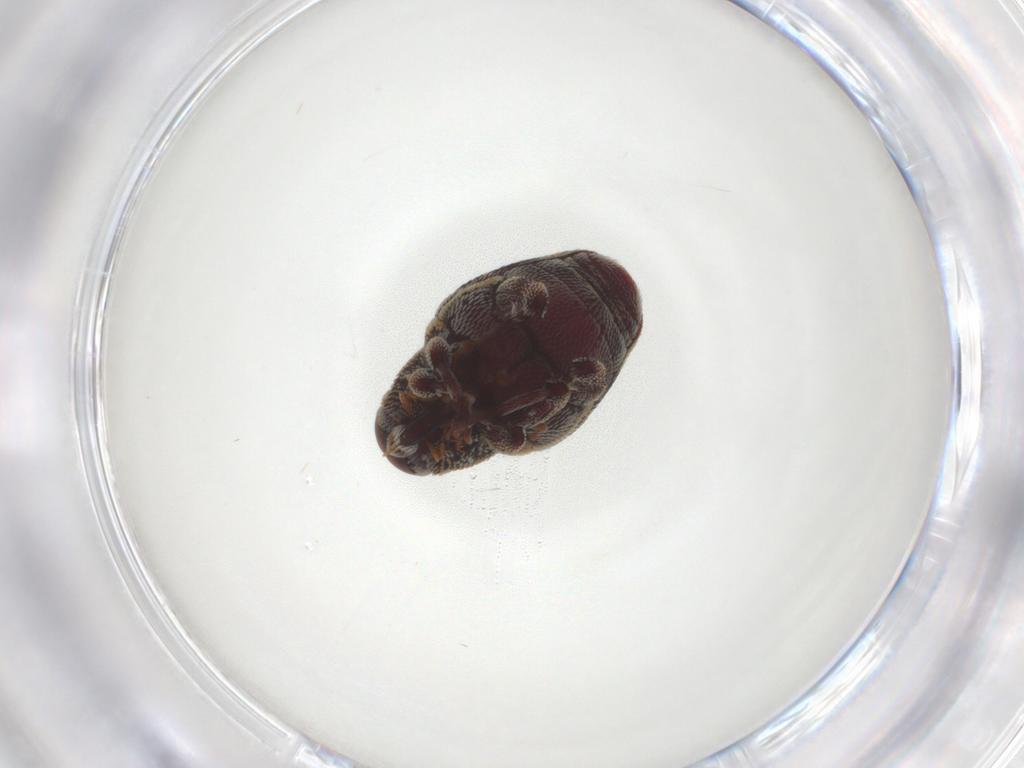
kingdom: Animalia
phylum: Arthropoda
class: Insecta
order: Coleoptera
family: Curculionidae
